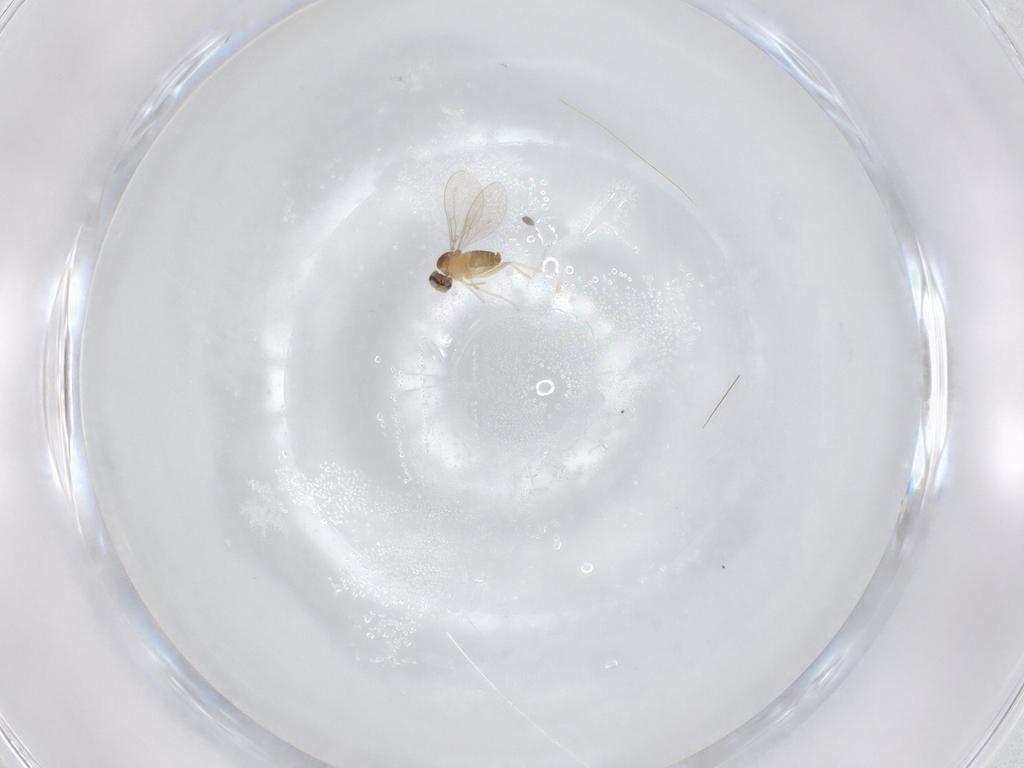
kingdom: Animalia
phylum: Arthropoda
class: Insecta
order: Diptera
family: Cecidomyiidae
